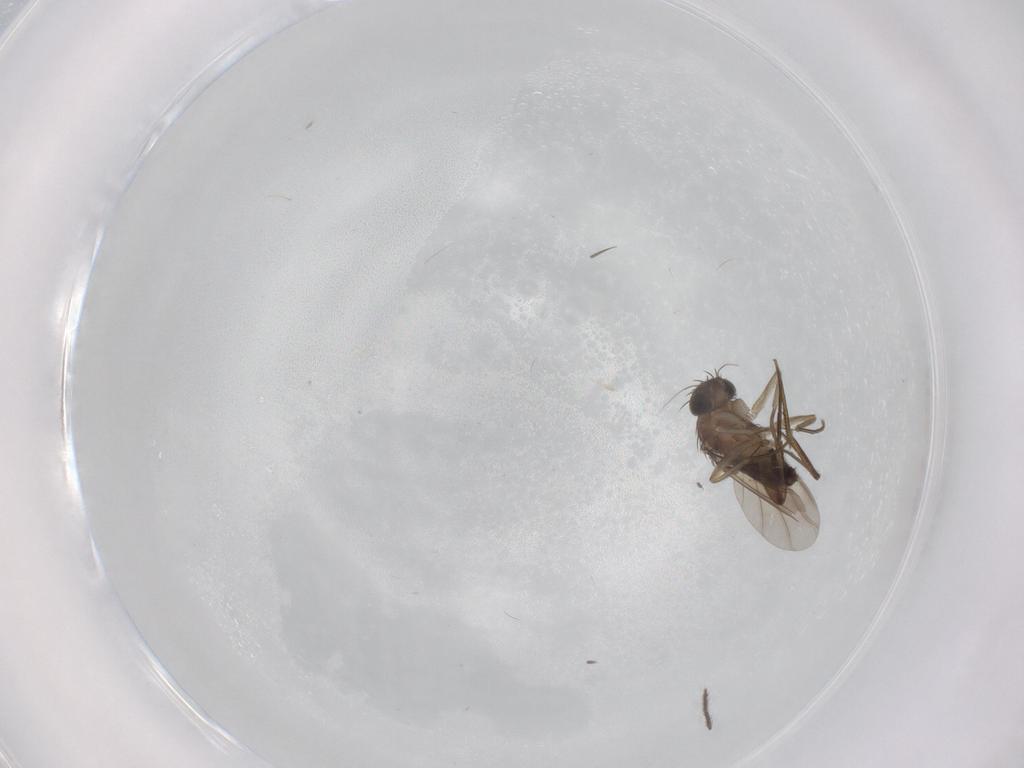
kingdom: Animalia
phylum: Arthropoda
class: Insecta
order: Diptera
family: Phoridae
